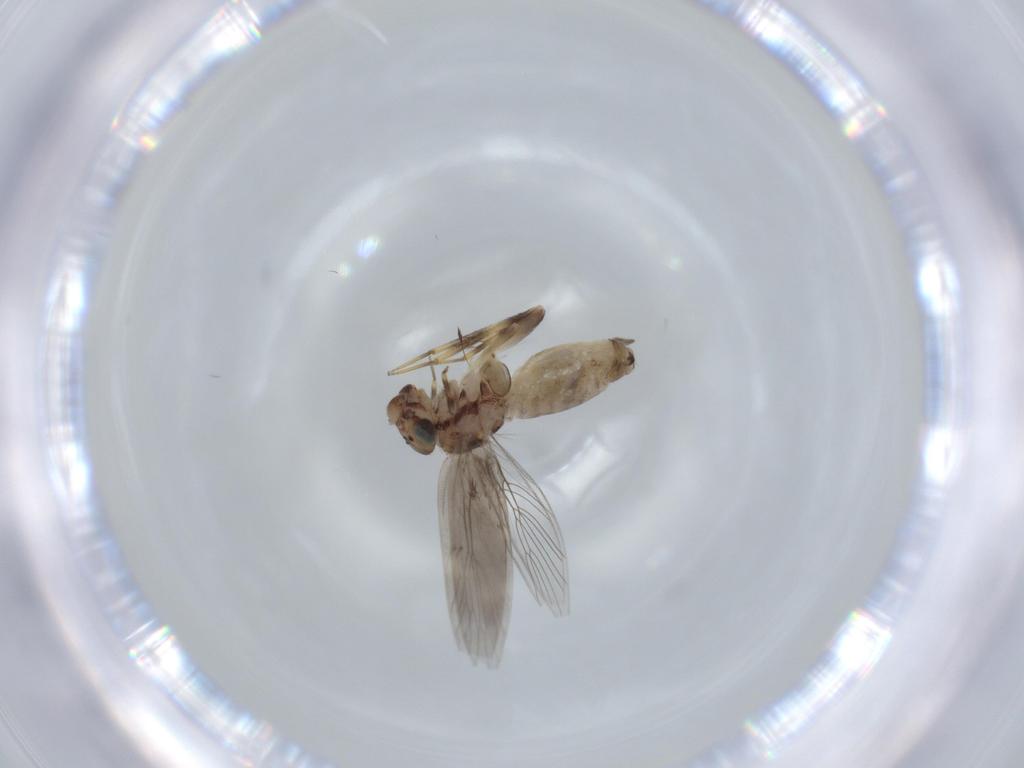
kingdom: Animalia
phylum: Arthropoda
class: Insecta
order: Psocodea
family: Lepidopsocidae
